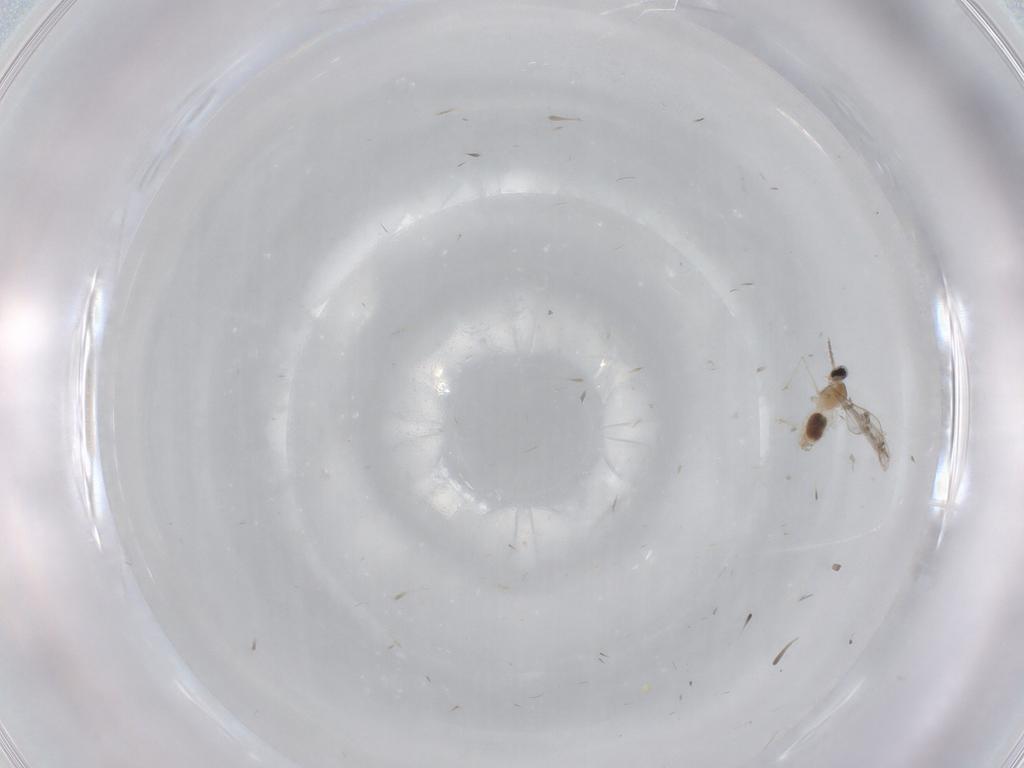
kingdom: Animalia
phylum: Arthropoda
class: Insecta
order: Diptera
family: Cecidomyiidae
